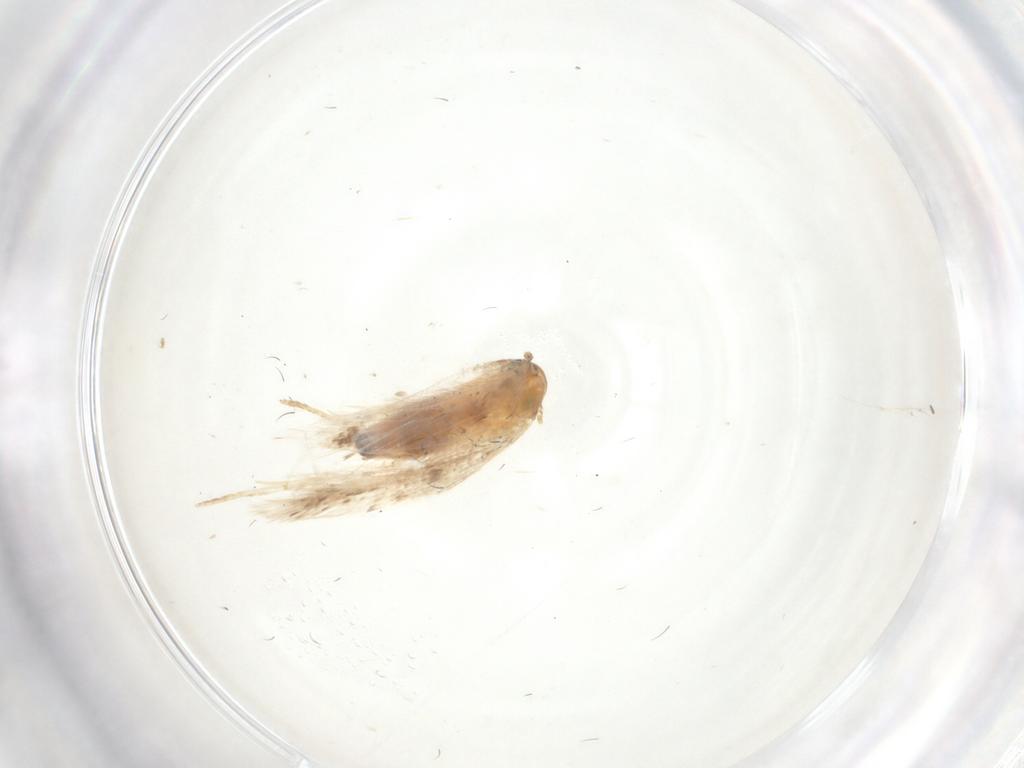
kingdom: Animalia
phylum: Arthropoda
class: Insecta
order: Lepidoptera
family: Gelechiidae
